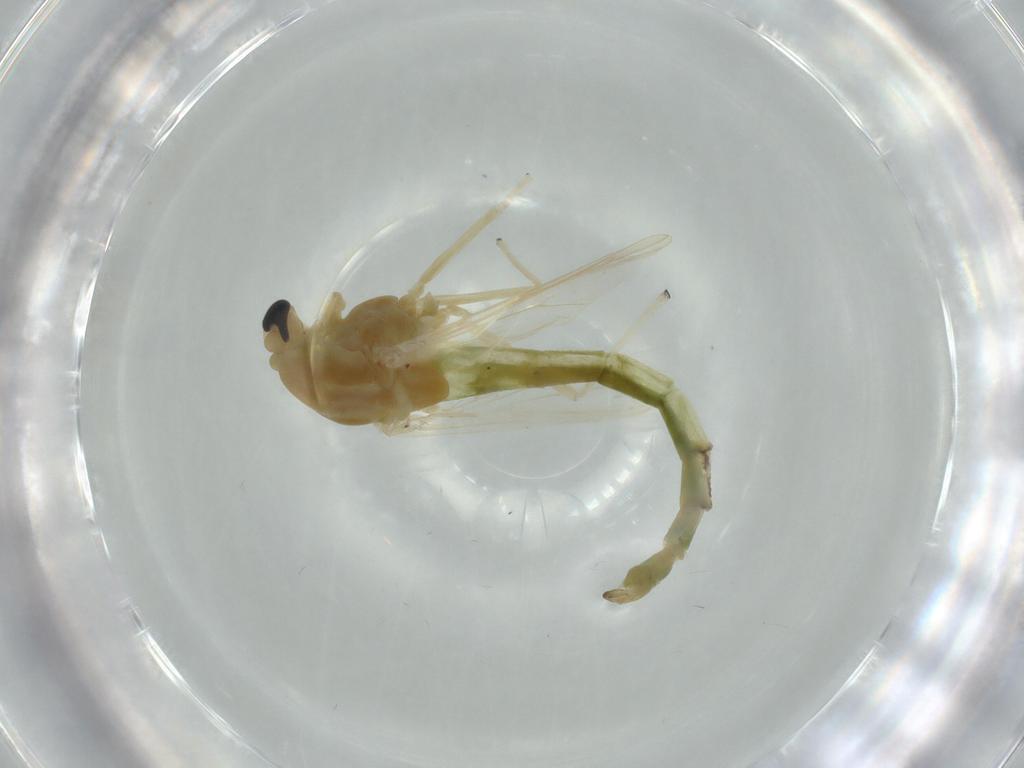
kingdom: Animalia
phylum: Arthropoda
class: Insecta
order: Diptera
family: Chironomidae
